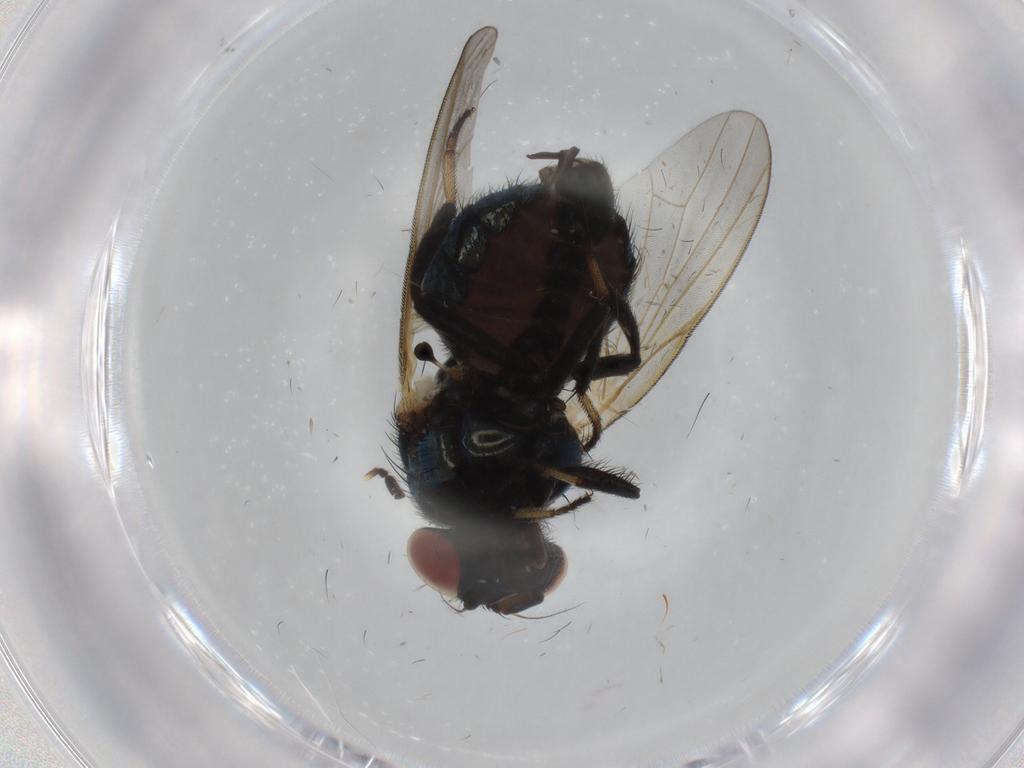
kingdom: Animalia
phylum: Arthropoda
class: Insecta
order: Diptera
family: Lonchaeidae
